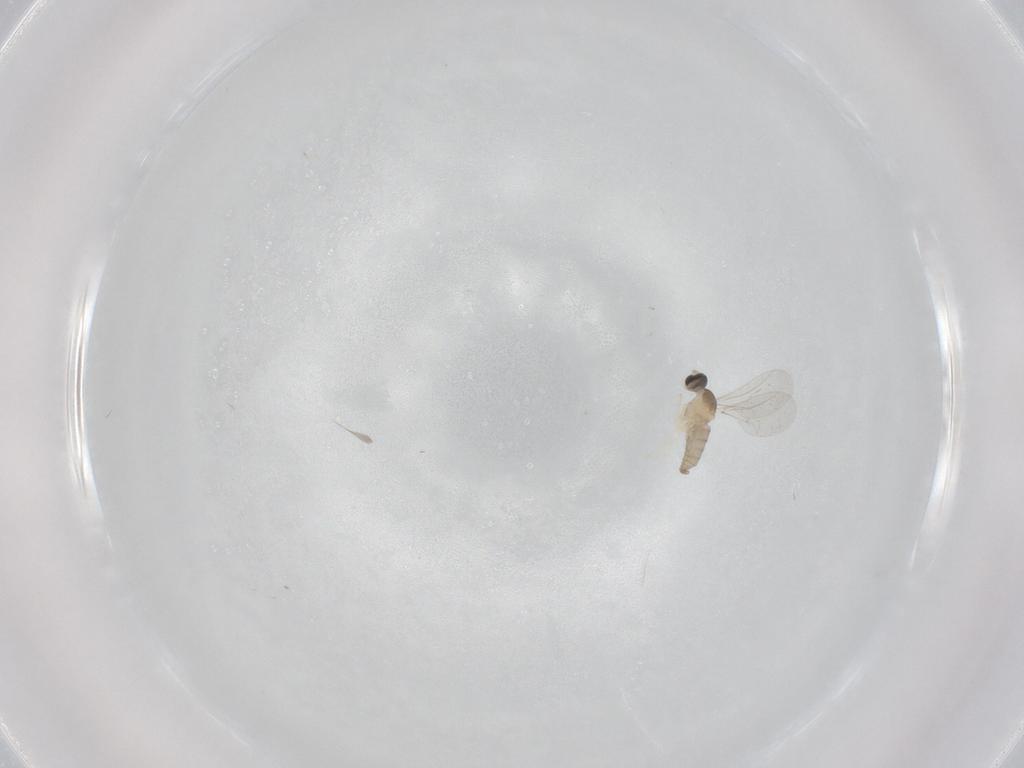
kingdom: Animalia
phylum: Arthropoda
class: Insecta
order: Diptera
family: Cecidomyiidae
